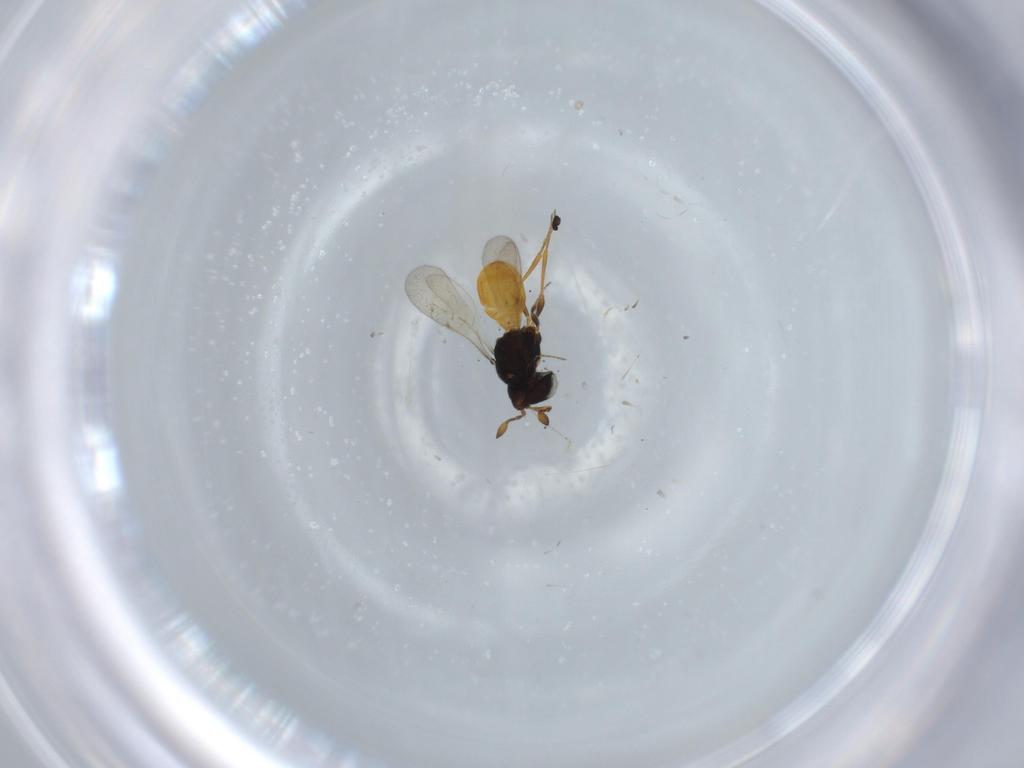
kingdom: Animalia
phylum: Arthropoda
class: Insecta
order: Hymenoptera
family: Scelionidae
